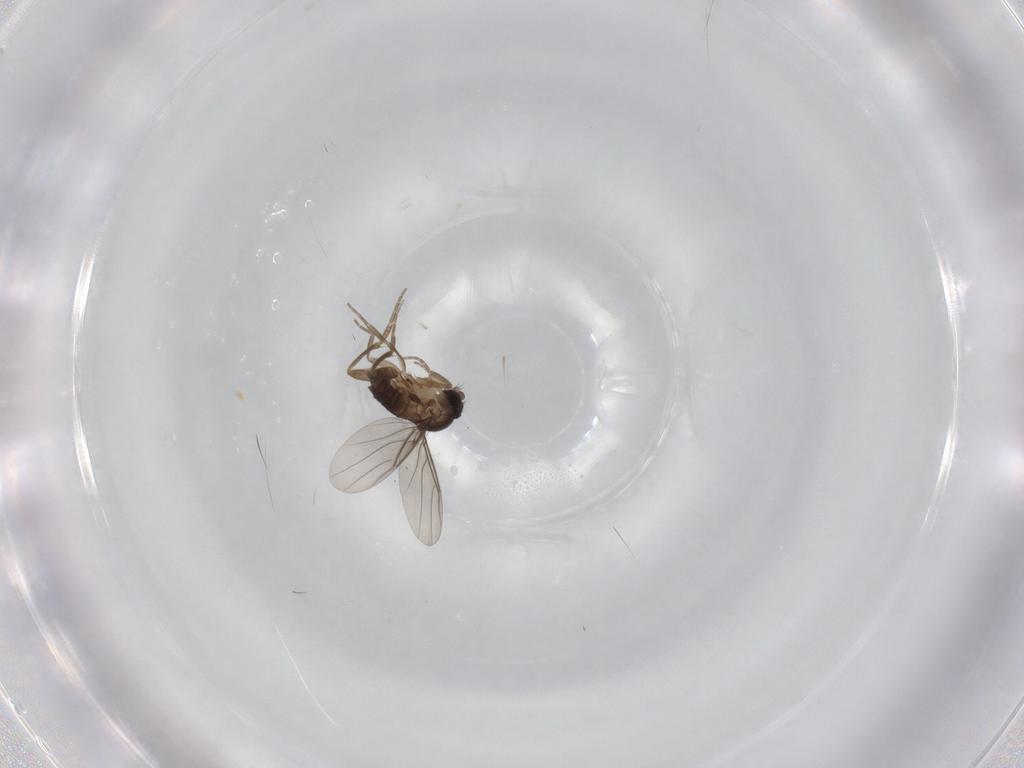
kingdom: Animalia
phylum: Arthropoda
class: Insecta
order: Diptera
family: Phoridae
